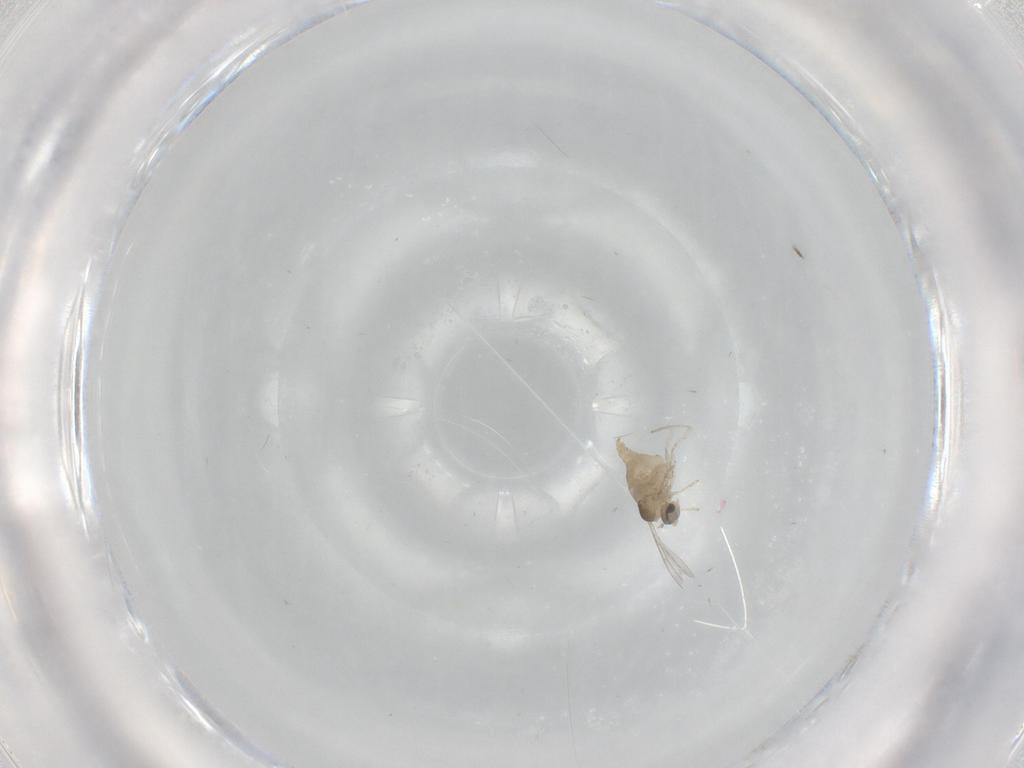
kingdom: Animalia
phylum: Arthropoda
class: Insecta
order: Diptera
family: Cecidomyiidae
